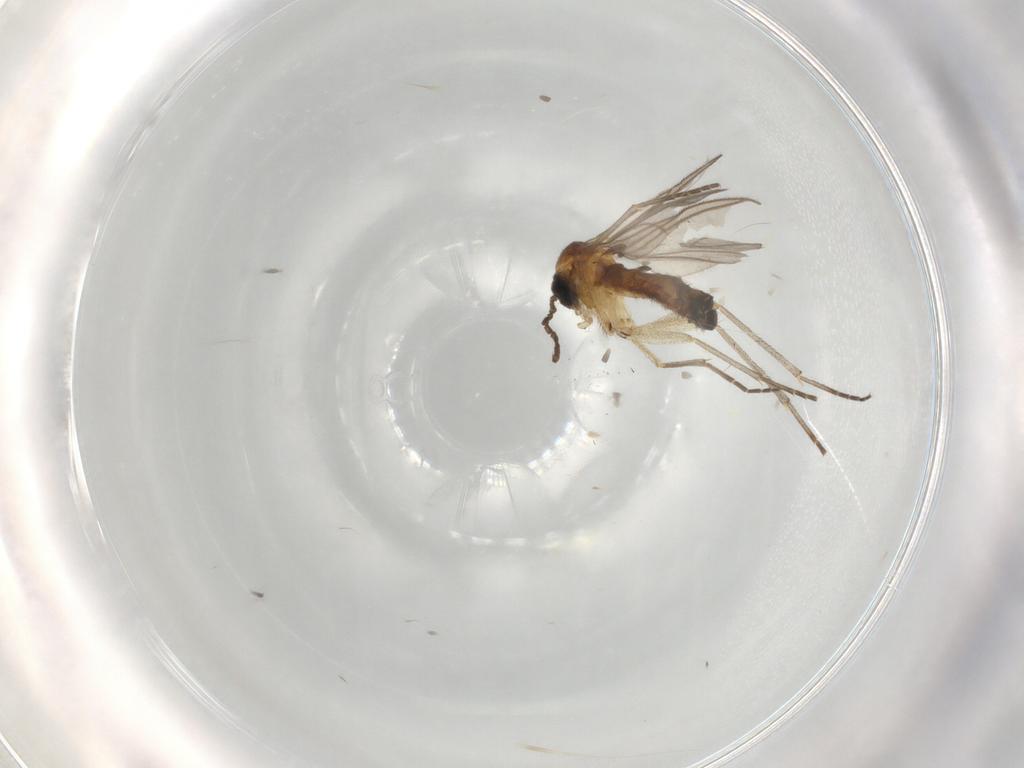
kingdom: Animalia
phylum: Arthropoda
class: Insecta
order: Diptera
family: Sciaridae
